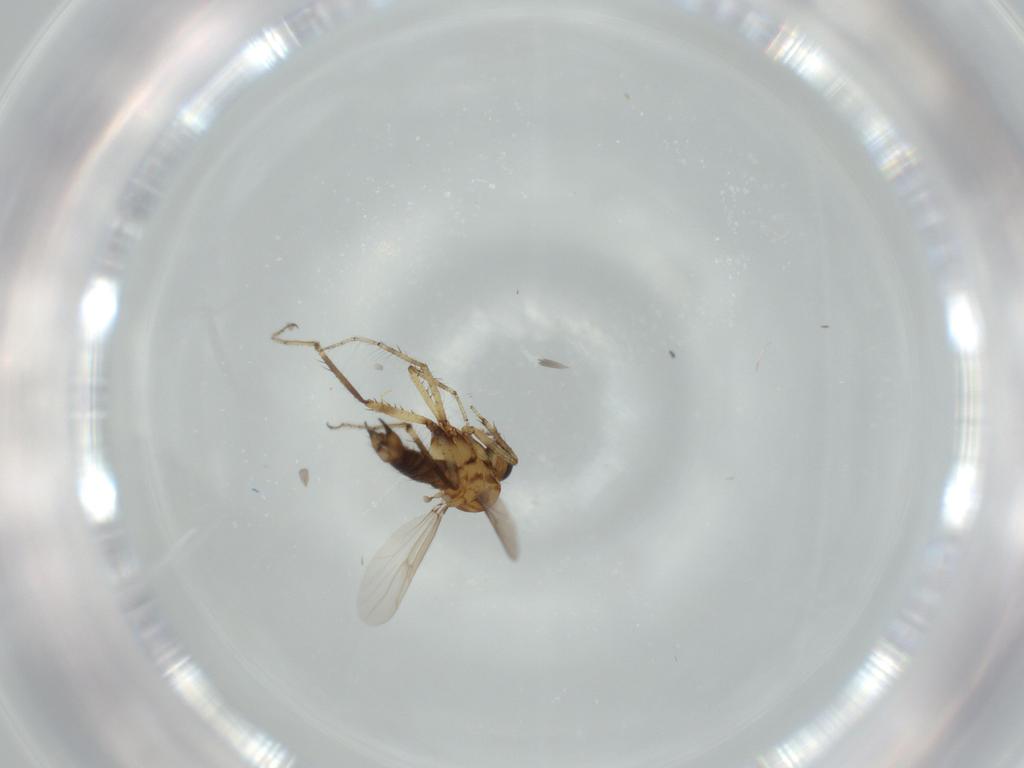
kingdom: Animalia
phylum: Arthropoda
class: Insecta
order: Diptera
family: Ceratopogonidae
